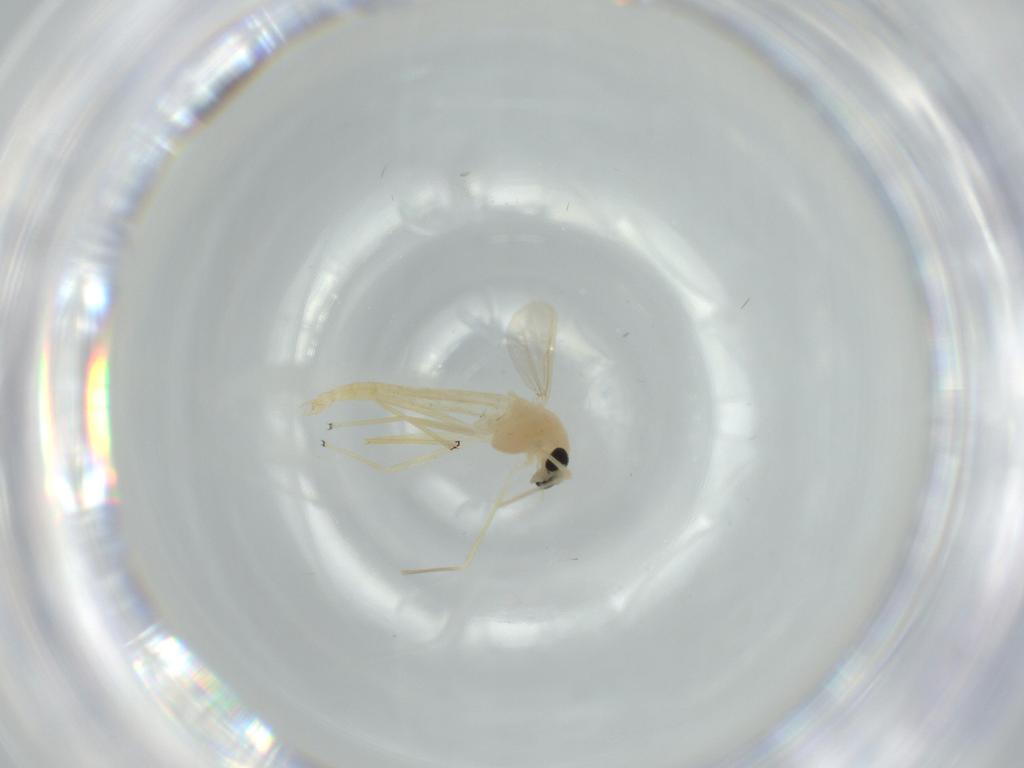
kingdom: Animalia
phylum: Arthropoda
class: Insecta
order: Diptera
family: Chironomidae
